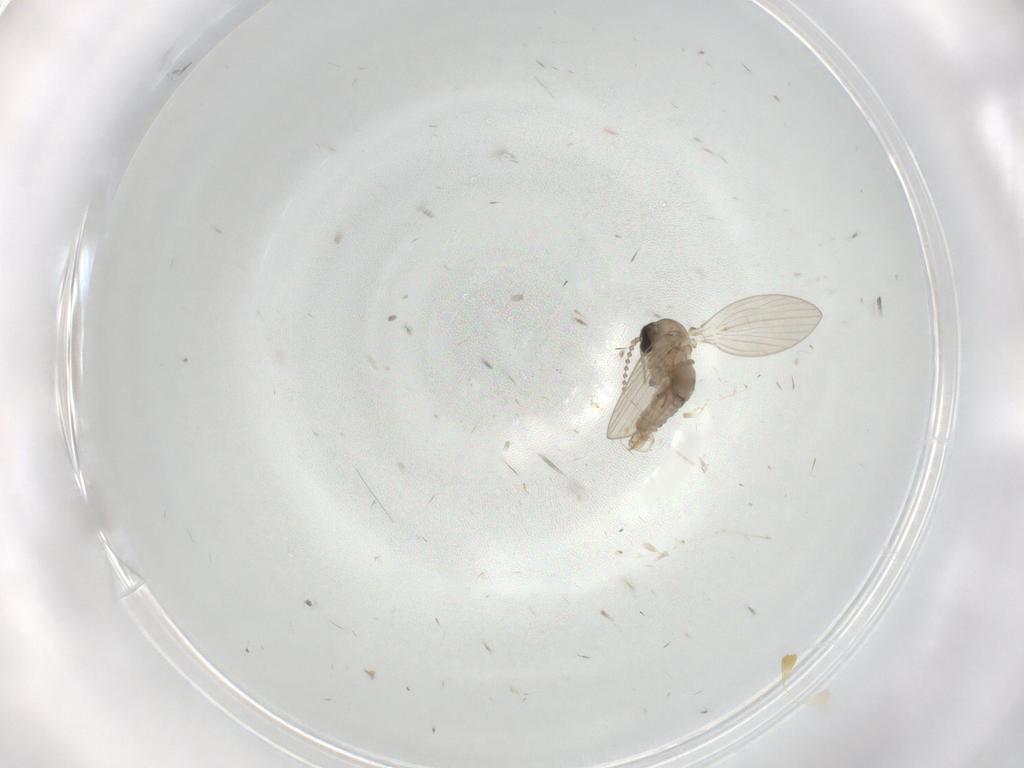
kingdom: Animalia
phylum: Arthropoda
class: Insecta
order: Diptera
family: Psychodidae
